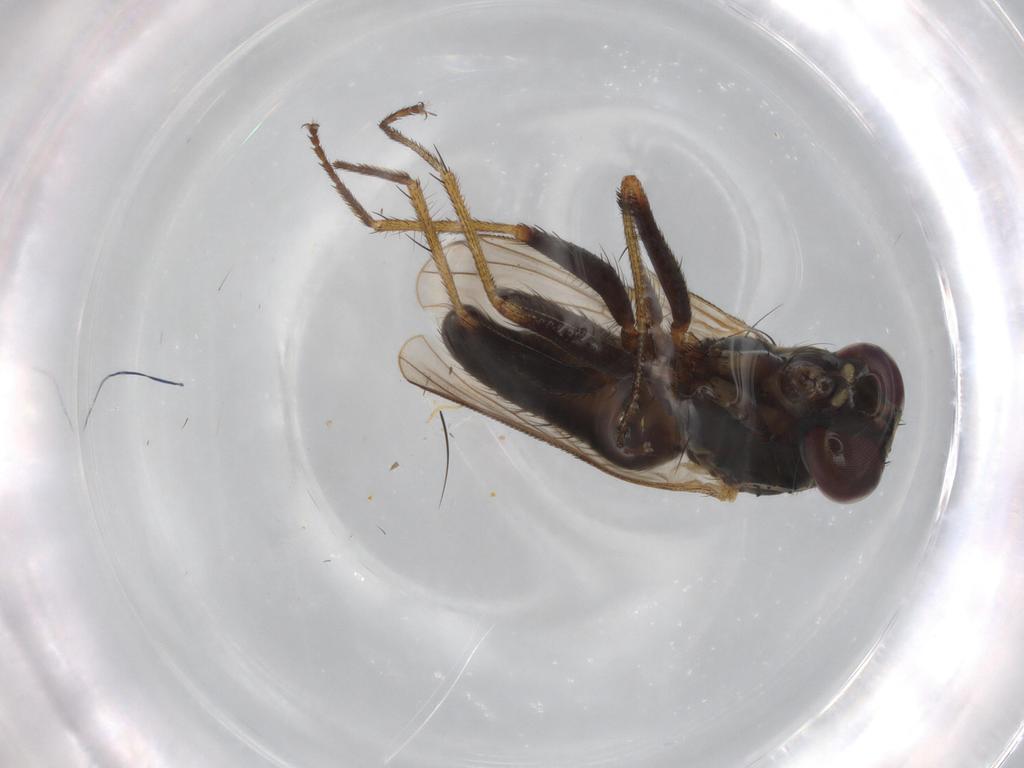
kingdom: Animalia
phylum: Arthropoda
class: Insecta
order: Diptera
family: Muscidae
